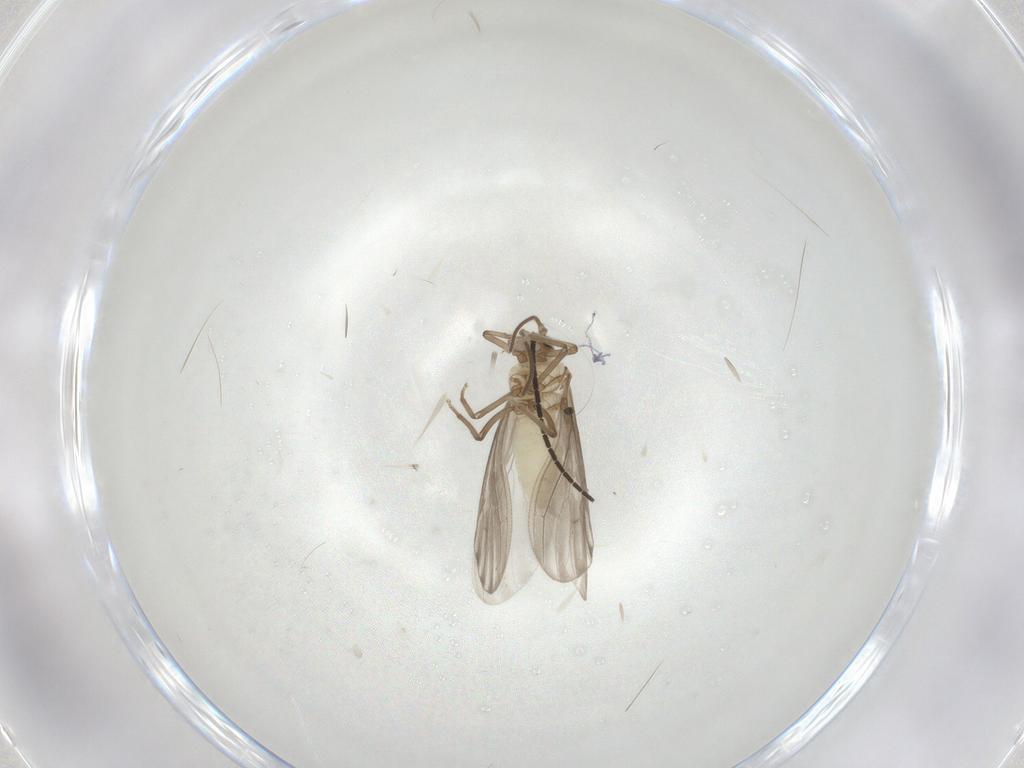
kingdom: Animalia
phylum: Arthropoda
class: Insecta
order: Neuroptera
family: Coniopterygidae
